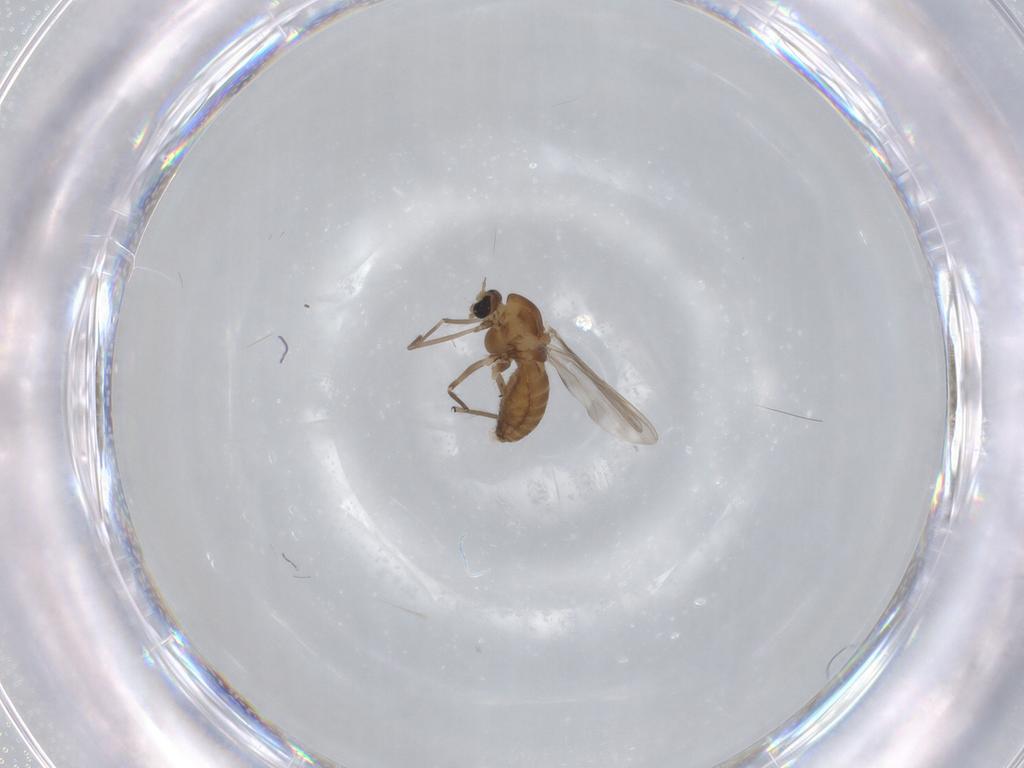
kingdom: Animalia
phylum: Arthropoda
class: Insecta
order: Diptera
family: Chironomidae
